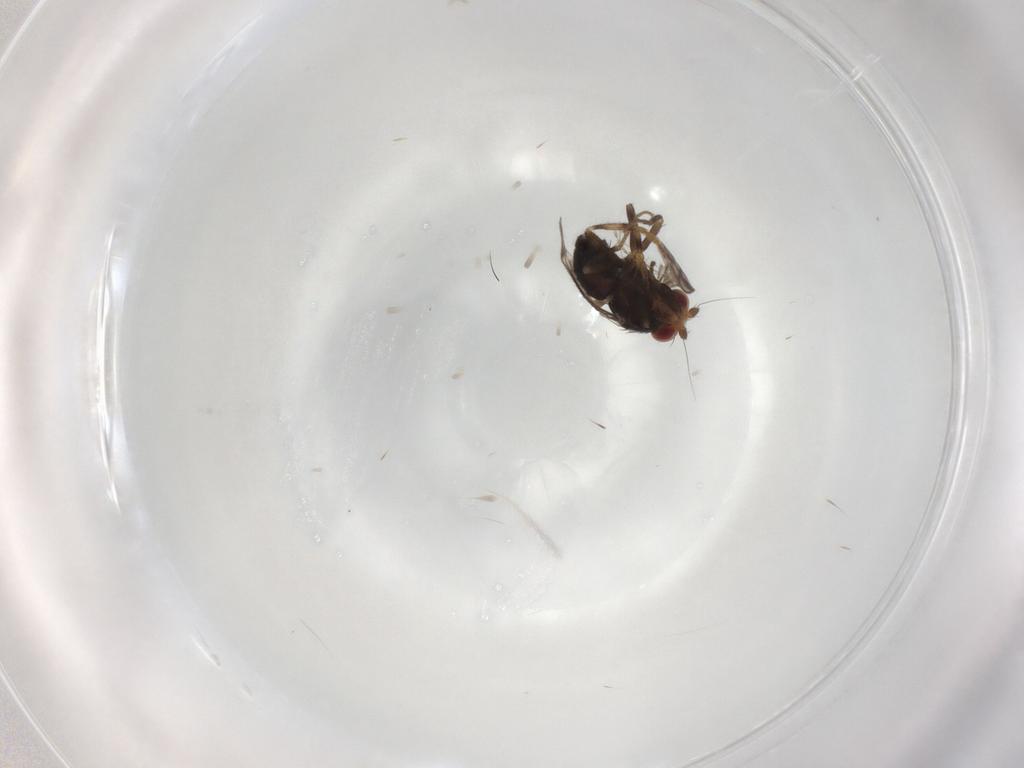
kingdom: Animalia
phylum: Arthropoda
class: Insecta
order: Diptera
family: Sphaeroceridae
